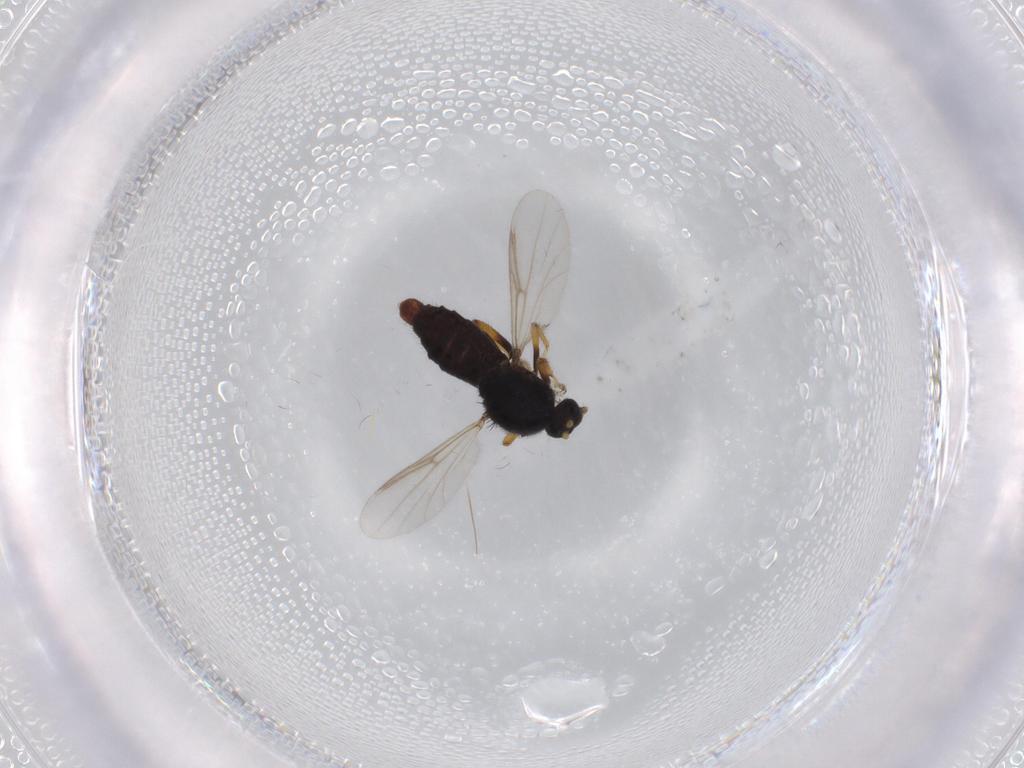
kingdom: Animalia
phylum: Arthropoda
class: Insecta
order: Diptera
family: Ceratopogonidae
